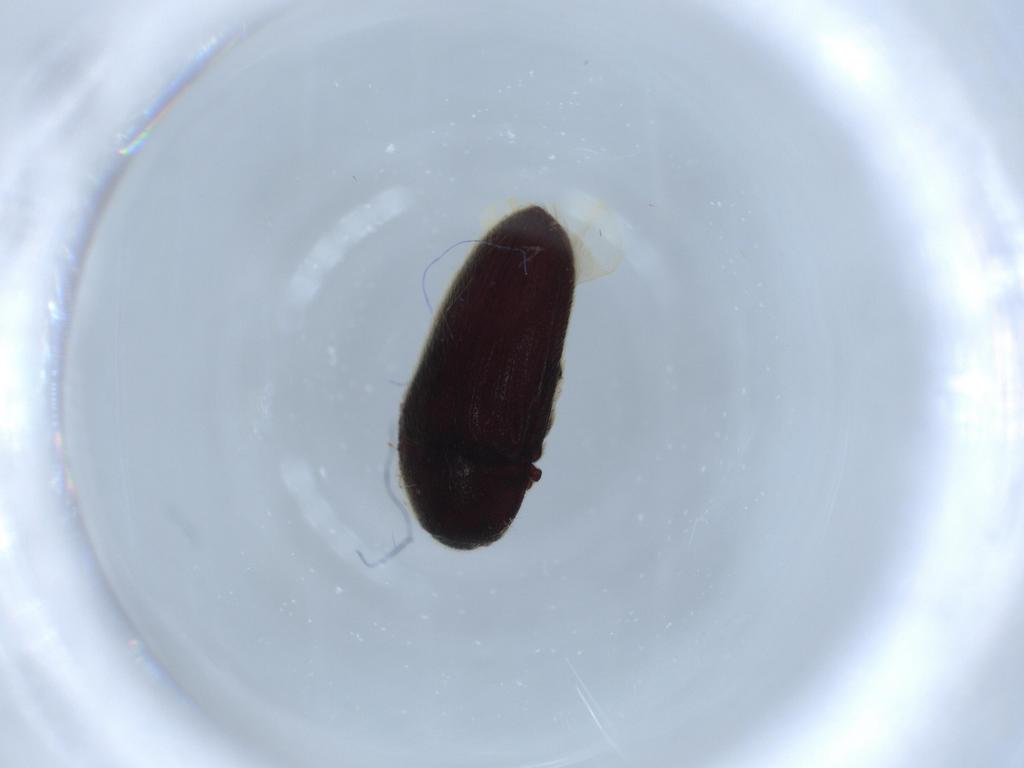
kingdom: Animalia
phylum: Arthropoda
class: Insecta
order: Coleoptera
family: Throscidae
